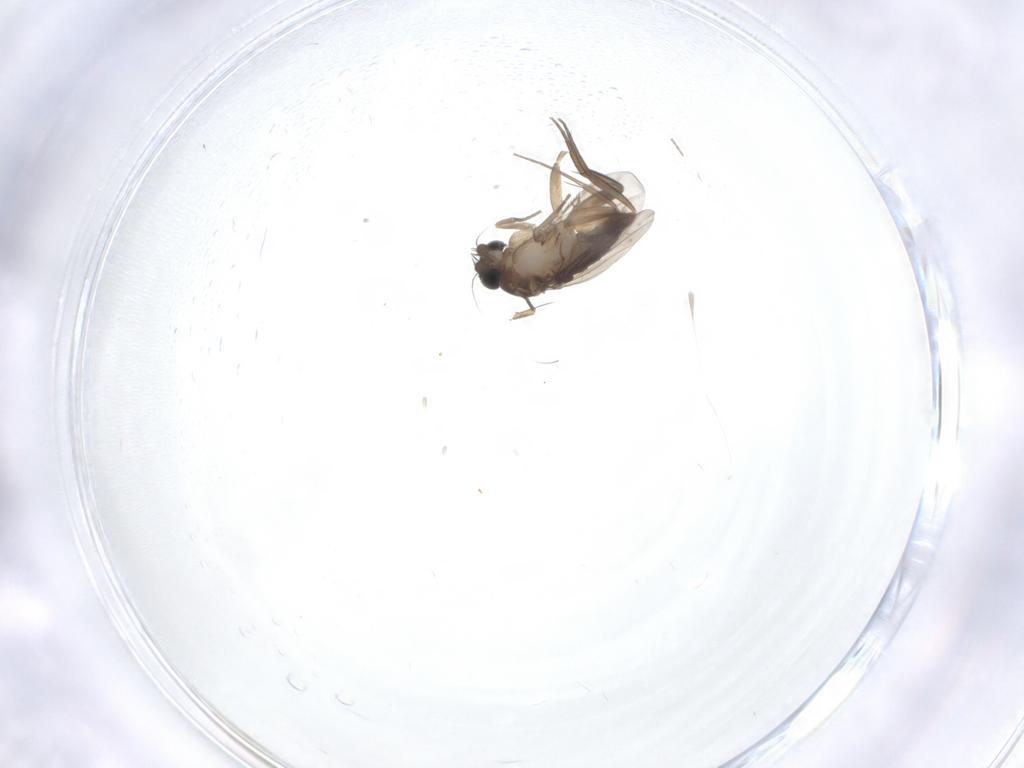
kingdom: Animalia
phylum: Arthropoda
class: Insecta
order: Diptera
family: Phoridae
